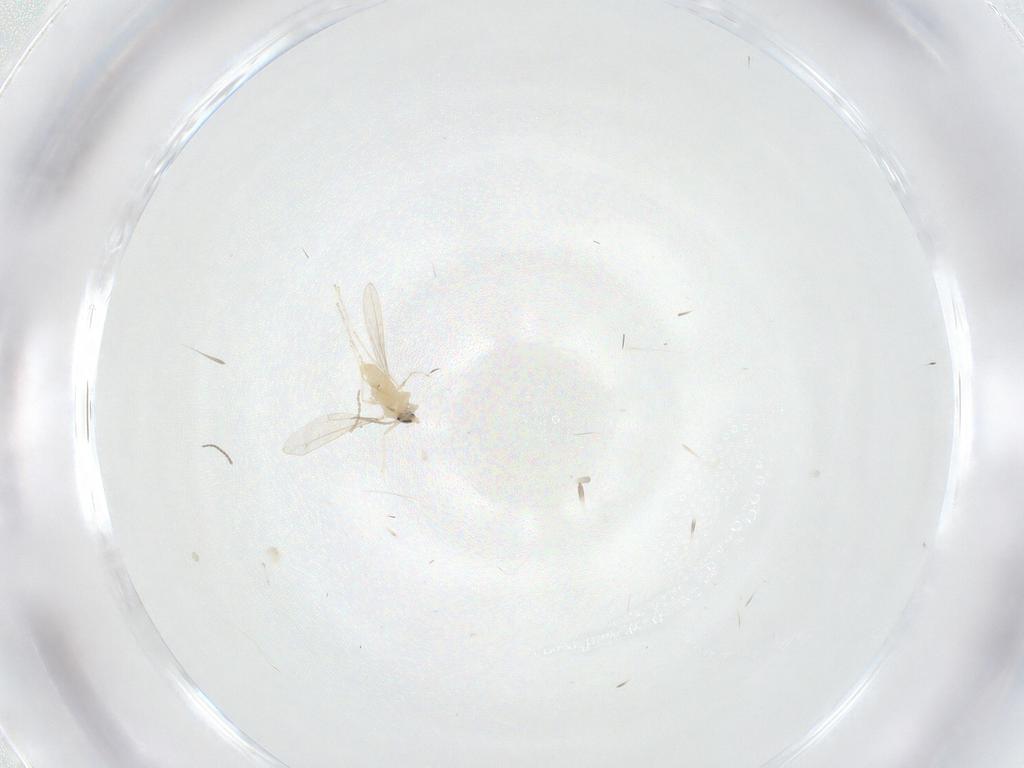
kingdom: Animalia
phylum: Arthropoda
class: Insecta
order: Diptera
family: Cecidomyiidae
